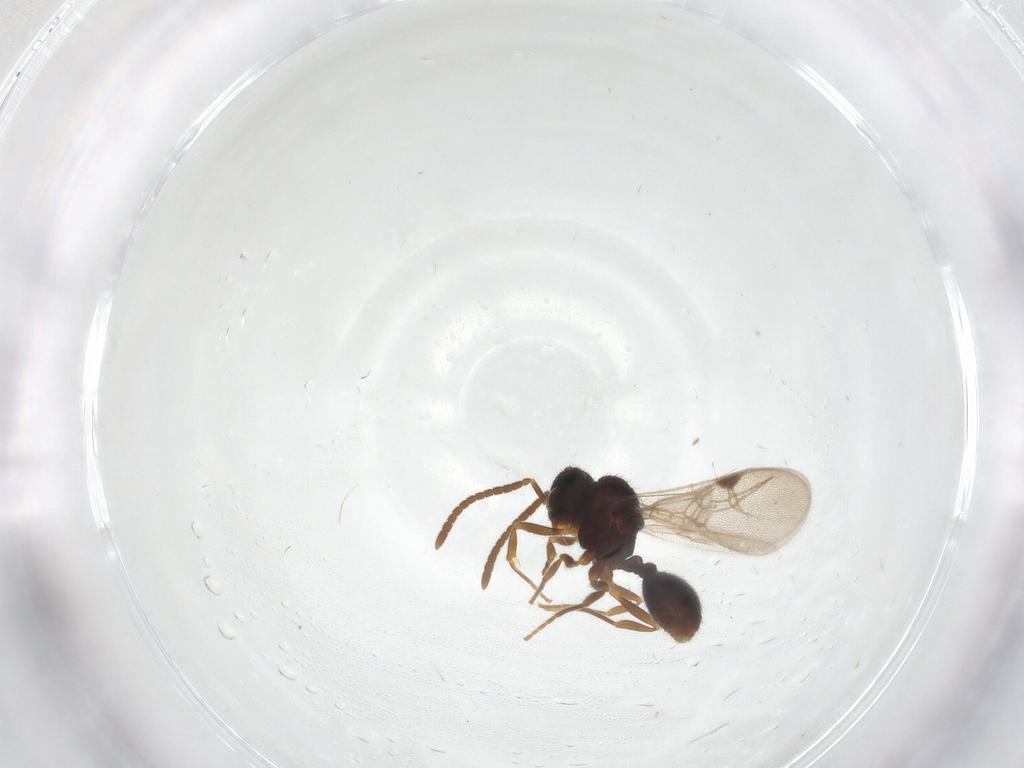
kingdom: Animalia
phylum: Arthropoda
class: Insecta
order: Hymenoptera
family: Formicidae
